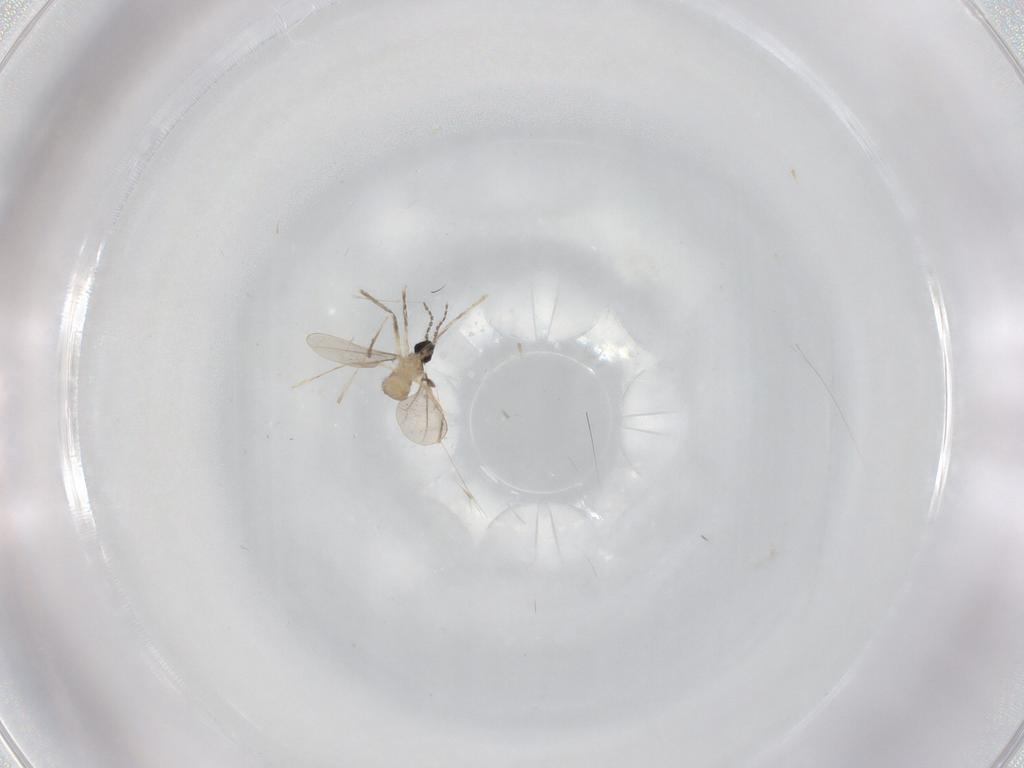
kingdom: Animalia
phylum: Arthropoda
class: Insecta
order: Diptera
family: Cecidomyiidae
